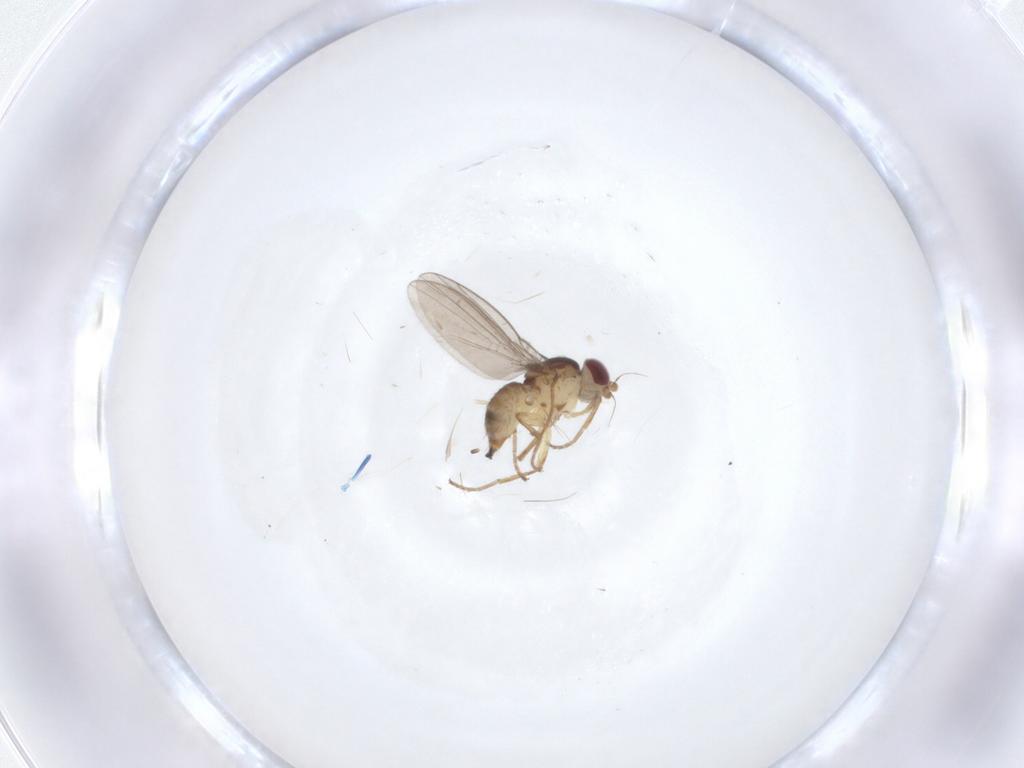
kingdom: Animalia
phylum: Arthropoda
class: Insecta
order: Diptera
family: Agromyzidae
